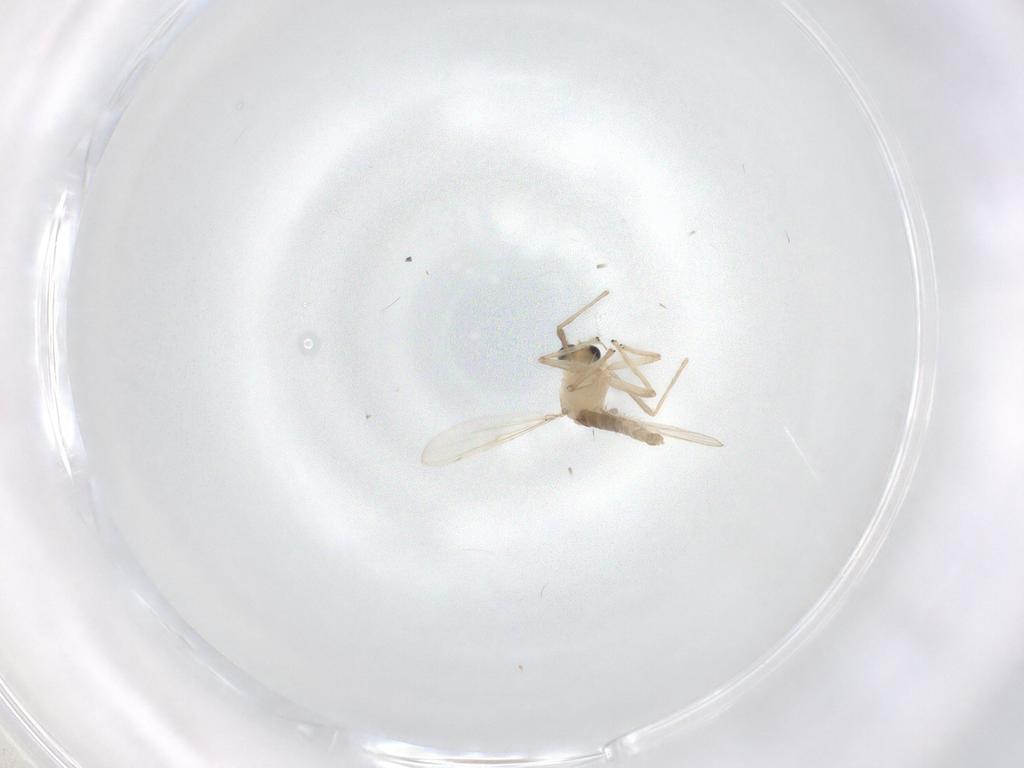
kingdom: Animalia
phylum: Arthropoda
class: Insecta
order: Diptera
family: Chironomidae
